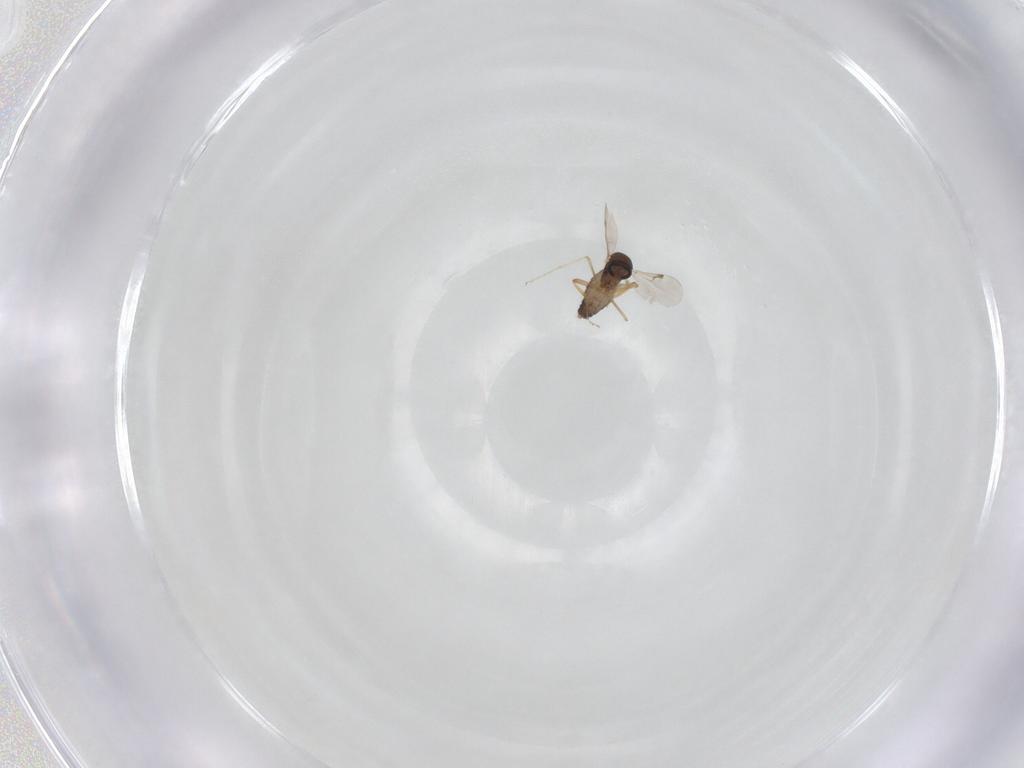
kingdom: Animalia
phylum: Arthropoda
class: Insecta
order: Diptera
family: Ceratopogonidae
